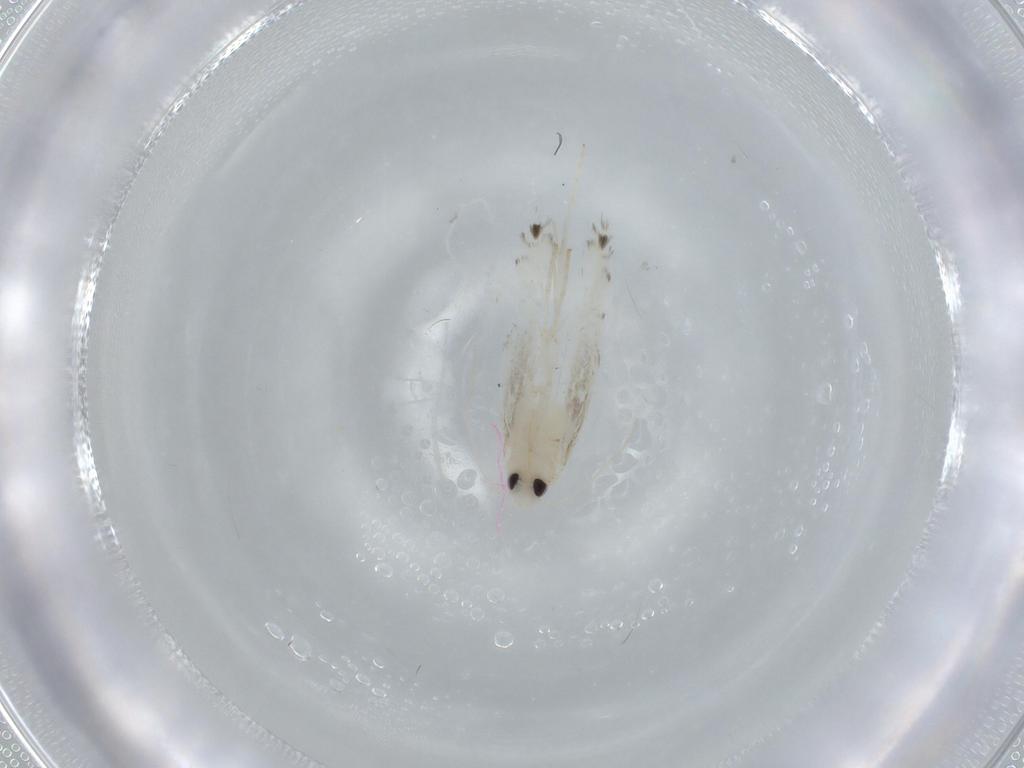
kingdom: Animalia
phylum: Arthropoda
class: Insecta
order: Lepidoptera
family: Gracillariidae
